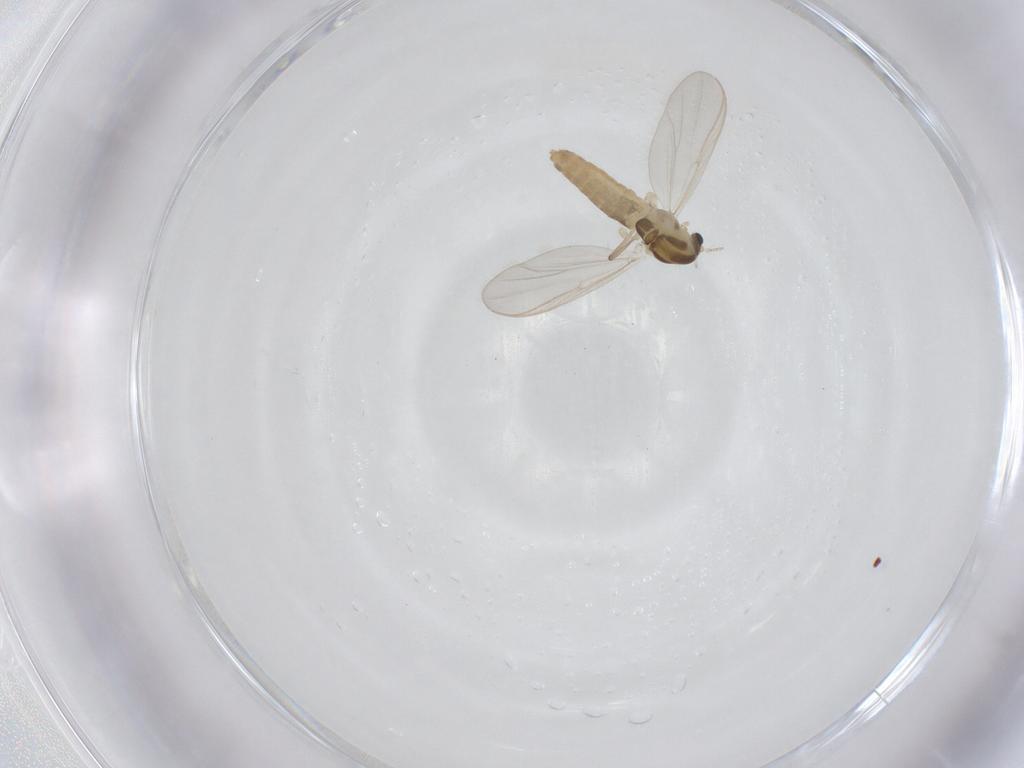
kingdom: Animalia
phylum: Arthropoda
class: Insecta
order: Diptera
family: Chironomidae
